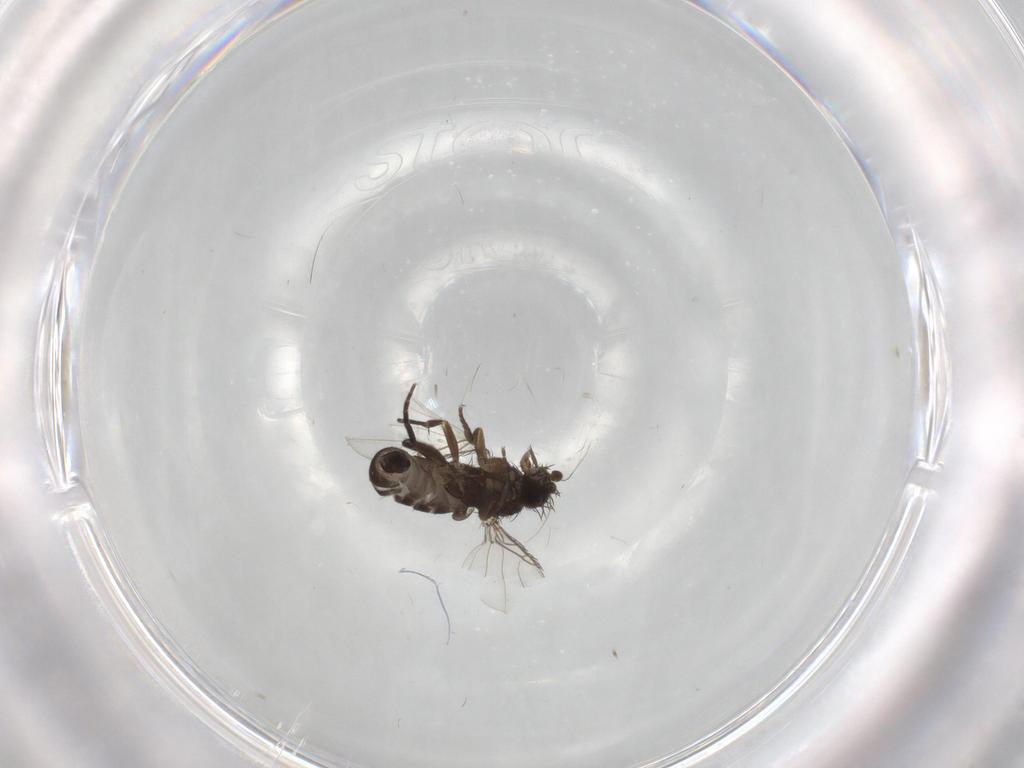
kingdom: Animalia
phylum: Arthropoda
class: Insecta
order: Diptera
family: Phoridae
